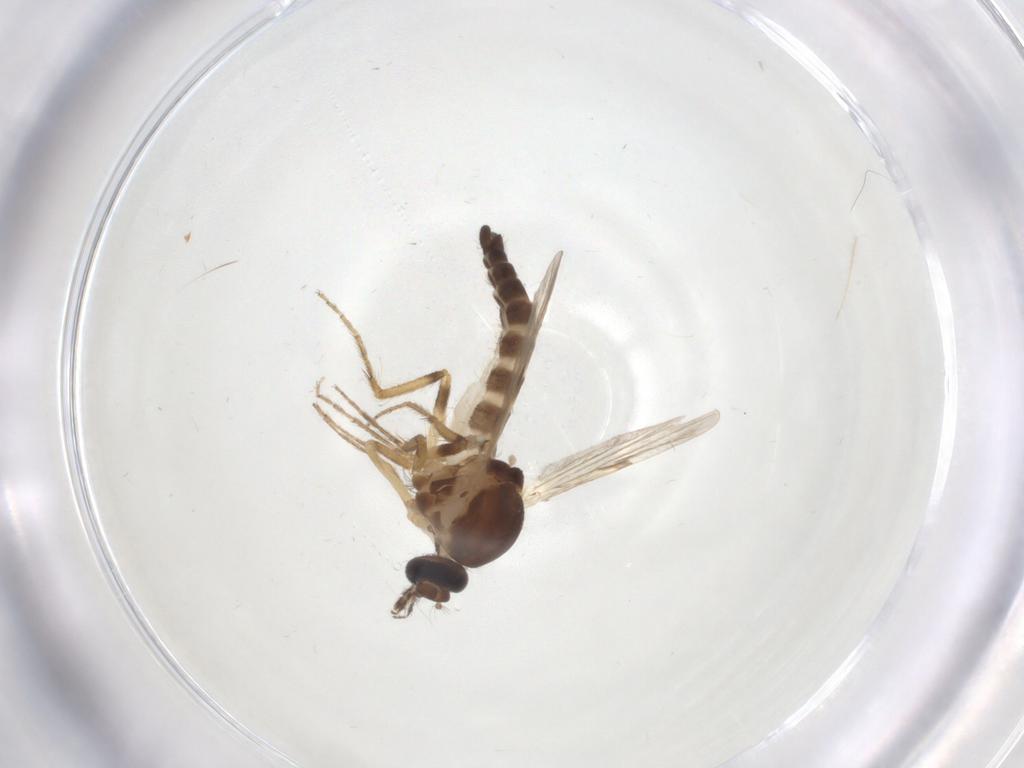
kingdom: Animalia
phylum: Arthropoda
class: Insecta
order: Diptera
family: Ceratopogonidae
